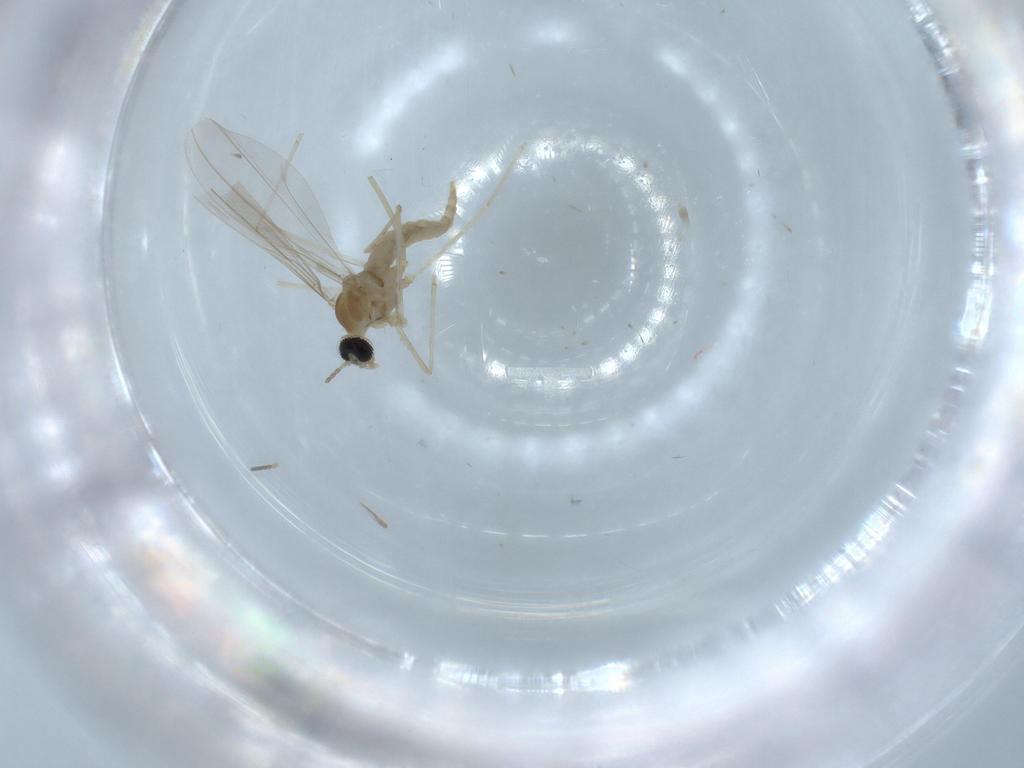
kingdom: Animalia
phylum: Arthropoda
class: Insecta
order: Diptera
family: Cecidomyiidae
